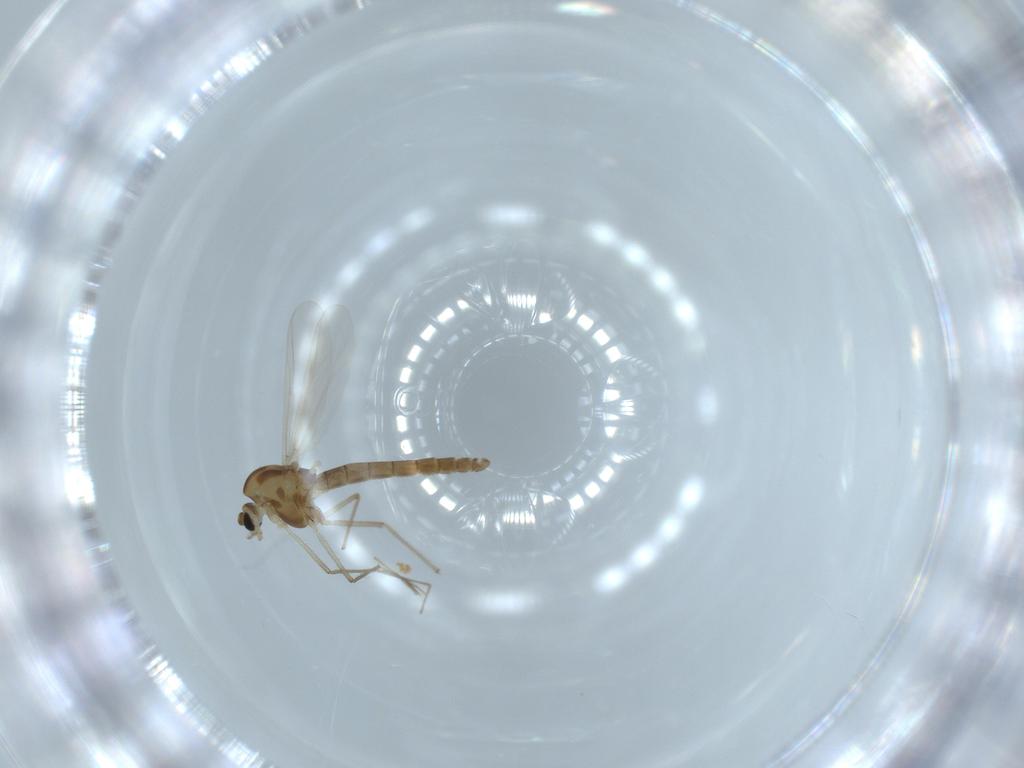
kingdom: Animalia
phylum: Arthropoda
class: Insecta
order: Diptera
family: Chironomidae
